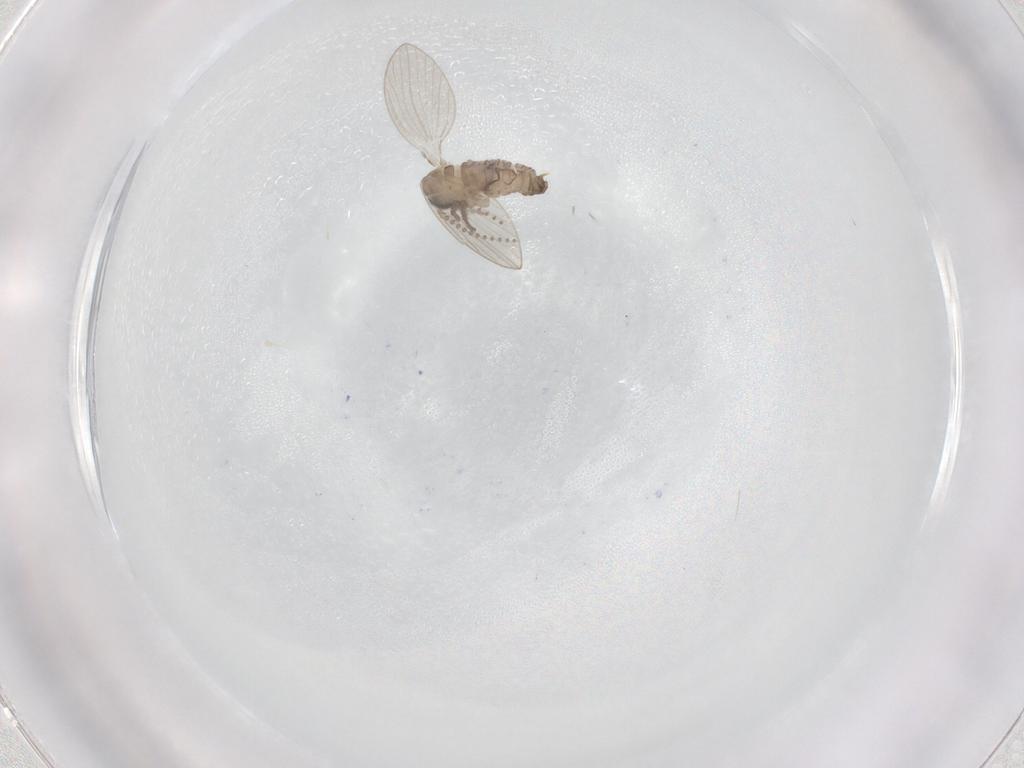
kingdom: Animalia
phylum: Arthropoda
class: Insecta
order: Diptera
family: Psychodidae
